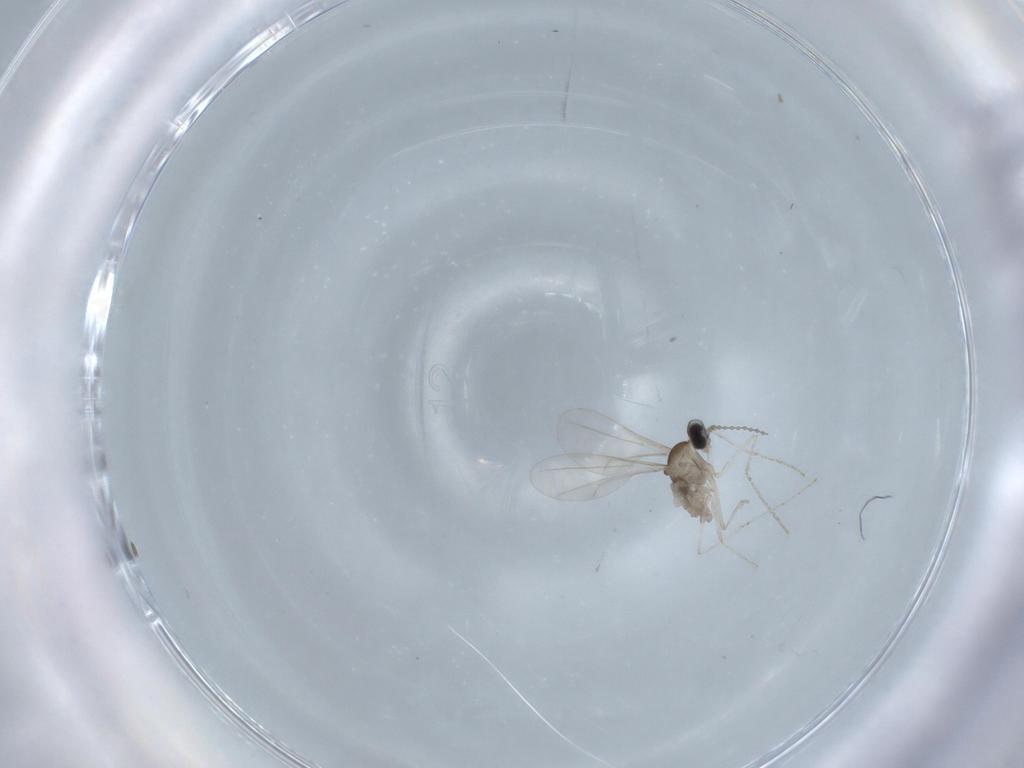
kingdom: Animalia
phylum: Arthropoda
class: Insecta
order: Diptera
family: Cecidomyiidae
